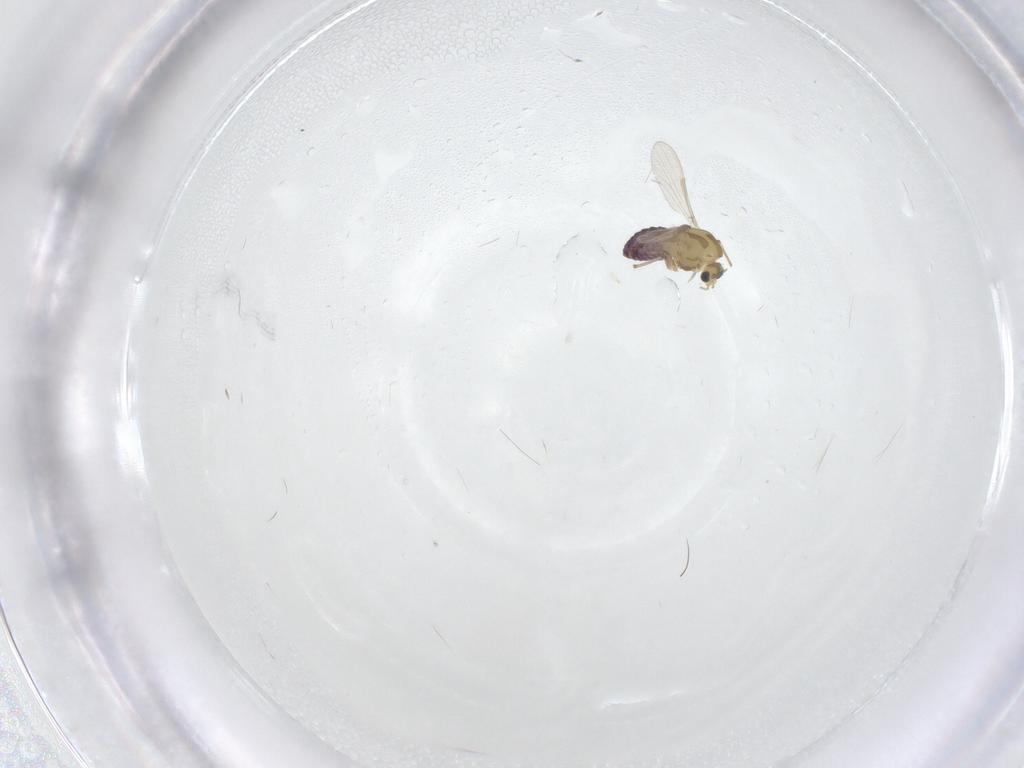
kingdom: Animalia
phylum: Arthropoda
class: Insecta
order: Diptera
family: Cecidomyiidae
